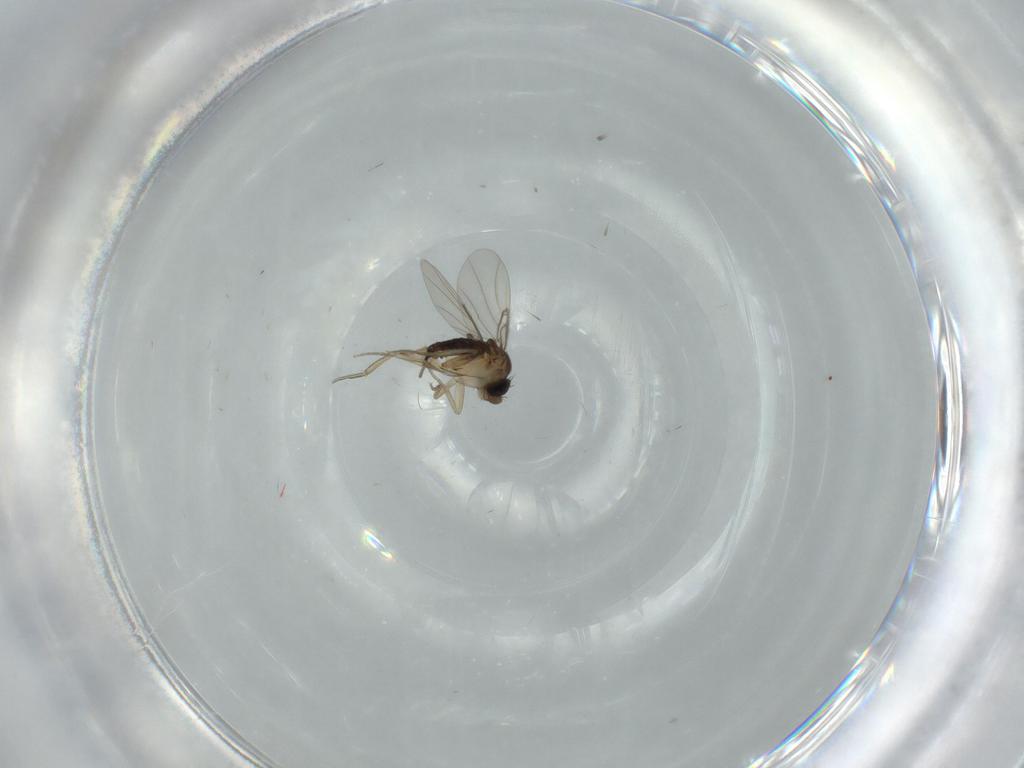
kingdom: Animalia
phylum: Arthropoda
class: Insecta
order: Diptera
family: Phoridae
